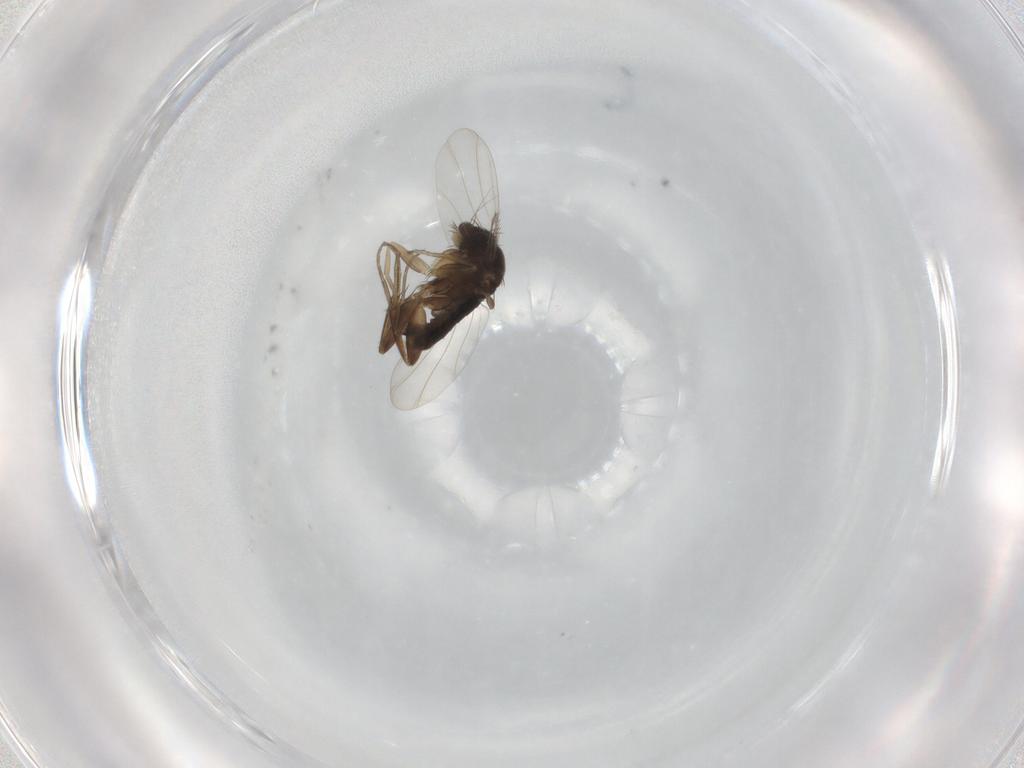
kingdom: Animalia
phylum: Arthropoda
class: Insecta
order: Diptera
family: Phoridae
